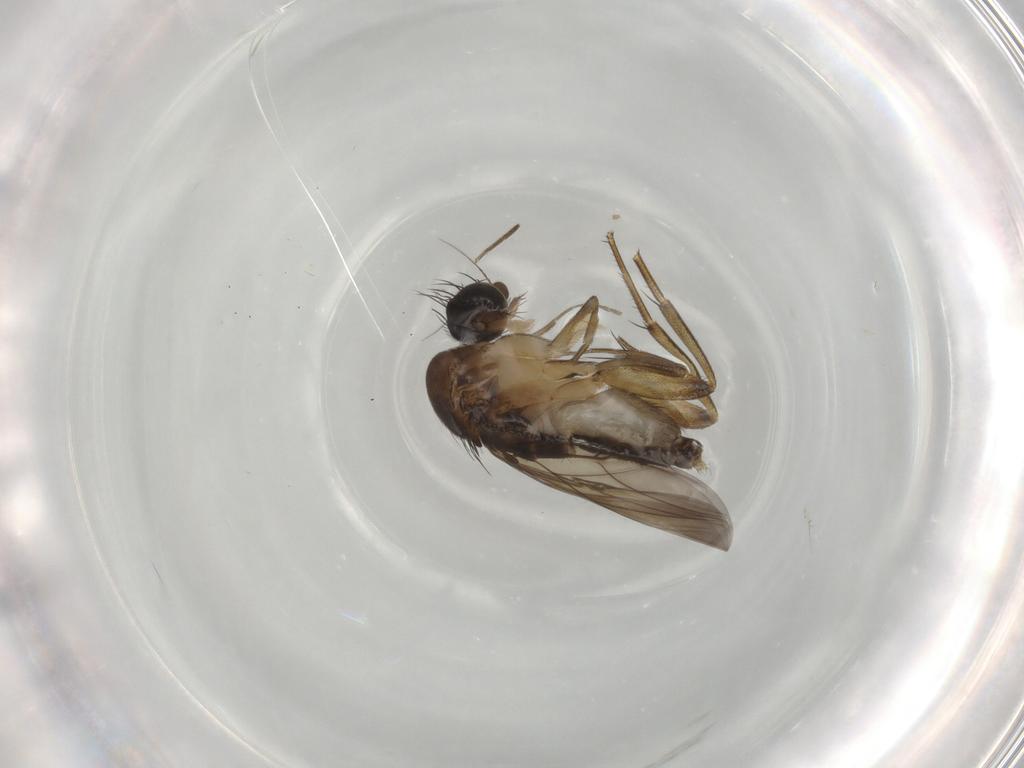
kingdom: Animalia
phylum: Arthropoda
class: Insecta
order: Diptera
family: Phoridae
